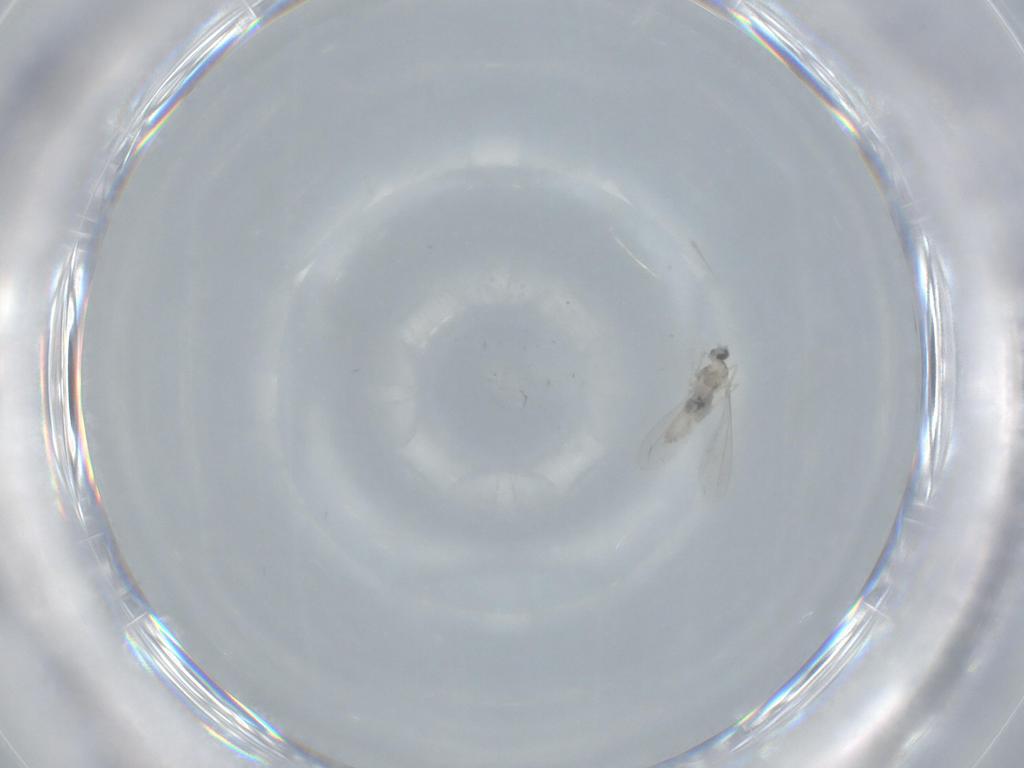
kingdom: Animalia
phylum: Arthropoda
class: Insecta
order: Diptera
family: Cecidomyiidae
